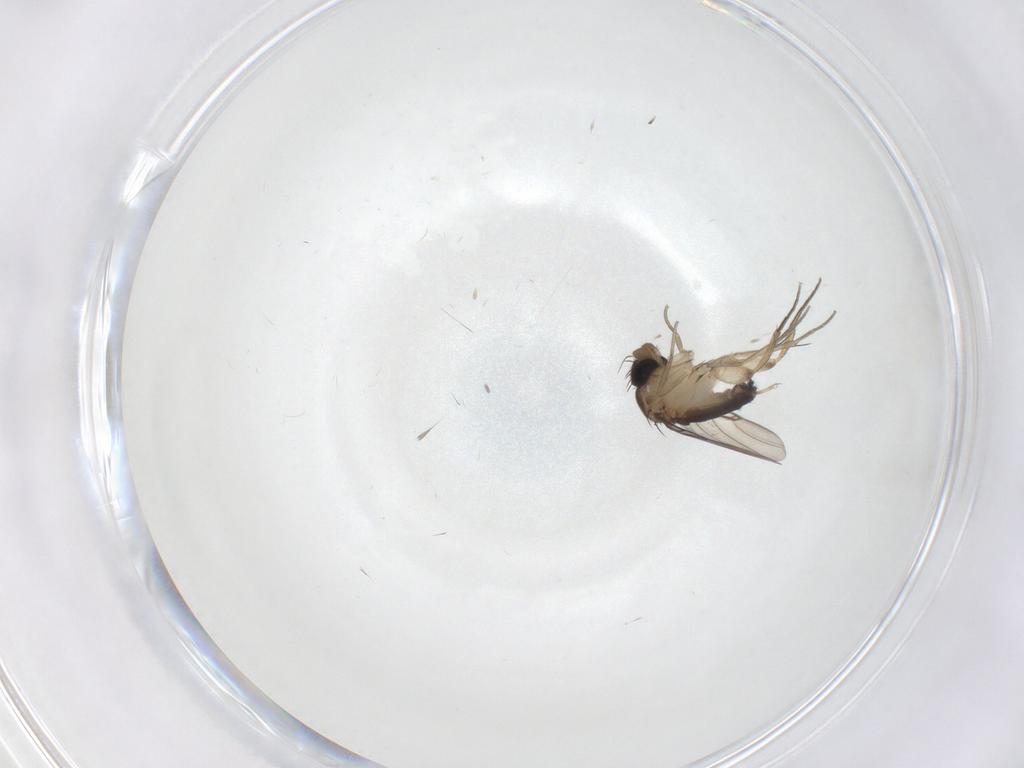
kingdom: Animalia
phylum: Arthropoda
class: Insecta
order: Diptera
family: Phoridae
